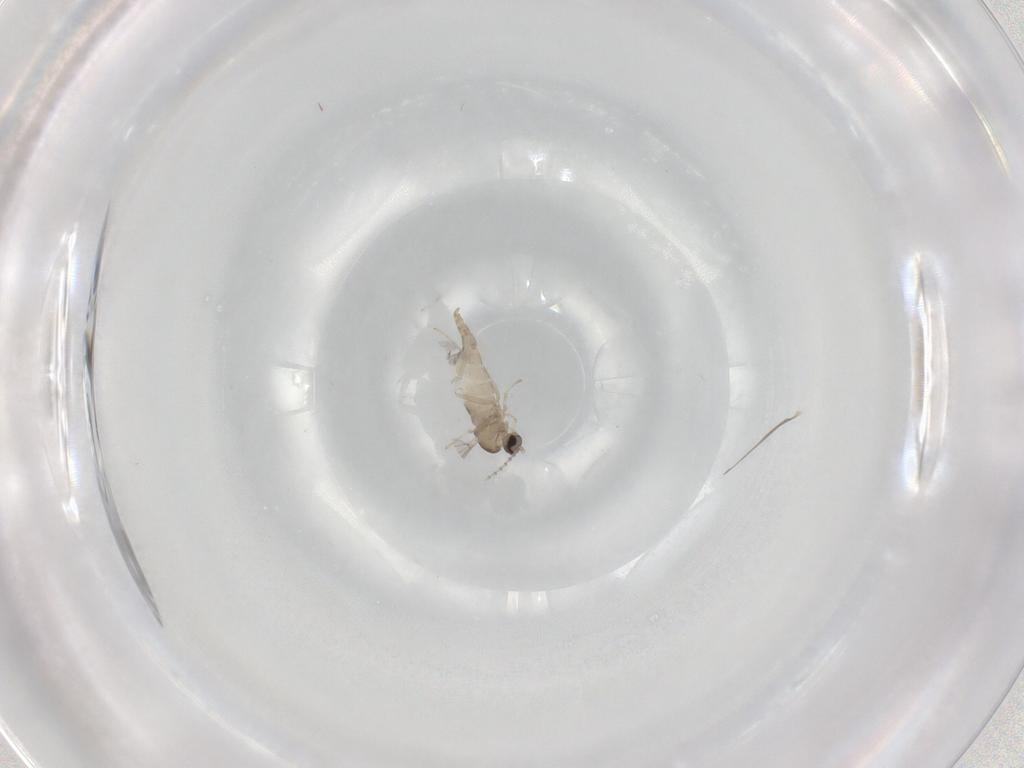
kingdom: Animalia
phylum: Arthropoda
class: Insecta
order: Diptera
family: Cecidomyiidae
